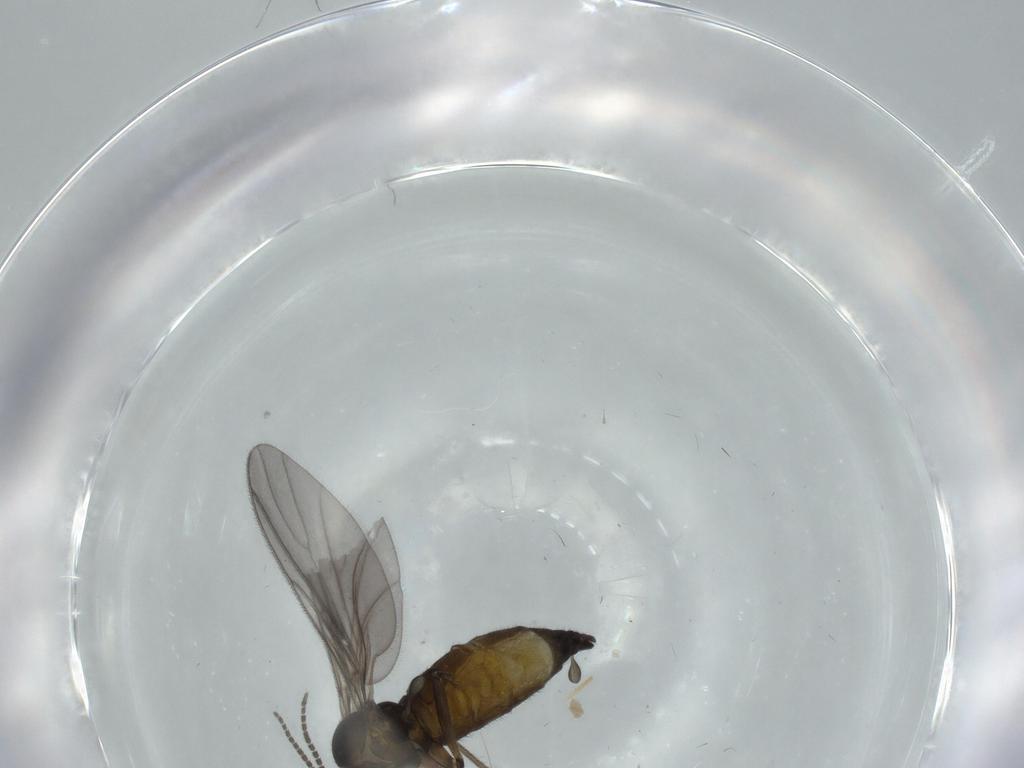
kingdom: Animalia
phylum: Arthropoda
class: Insecta
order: Diptera
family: Sciaridae
